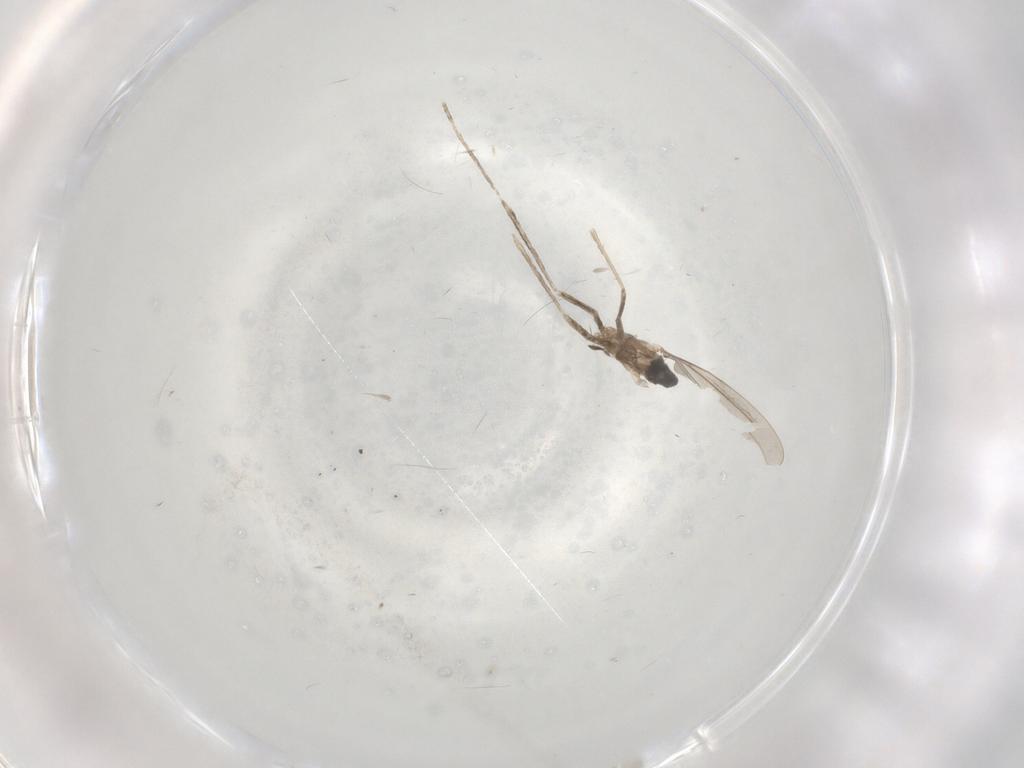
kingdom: Animalia
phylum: Arthropoda
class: Insecta
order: Diptera
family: Cecidomyiidae
